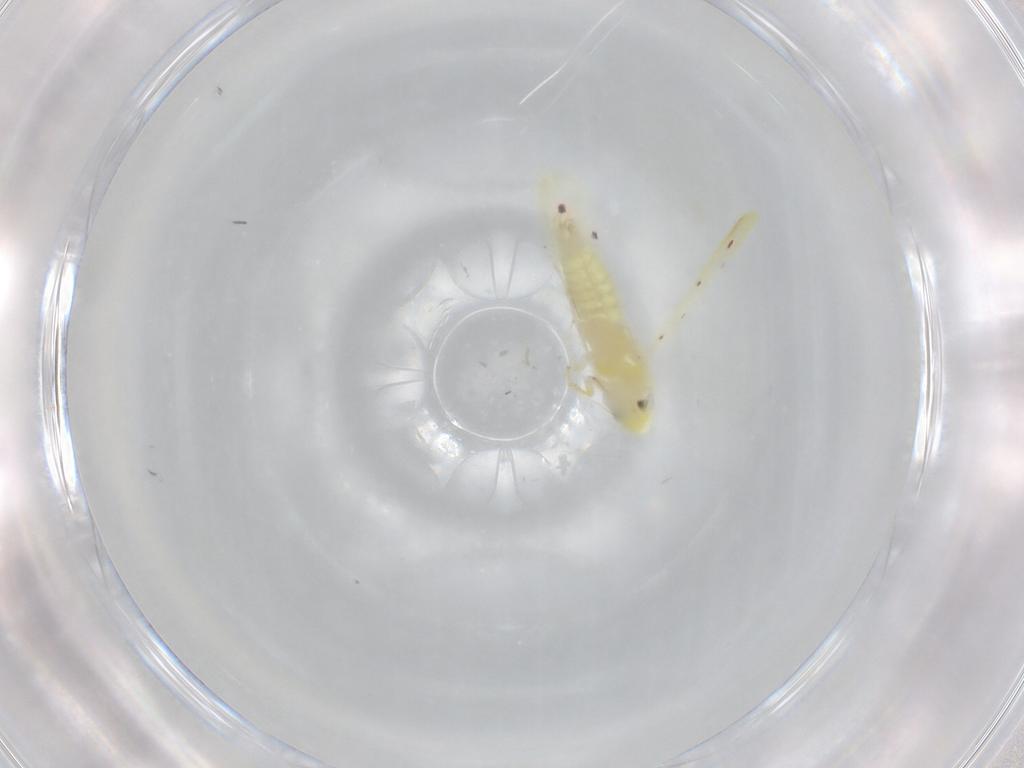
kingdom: Animalia
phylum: Arthropoda
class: Insecta
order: Hemiptera
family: Cicadellidae
